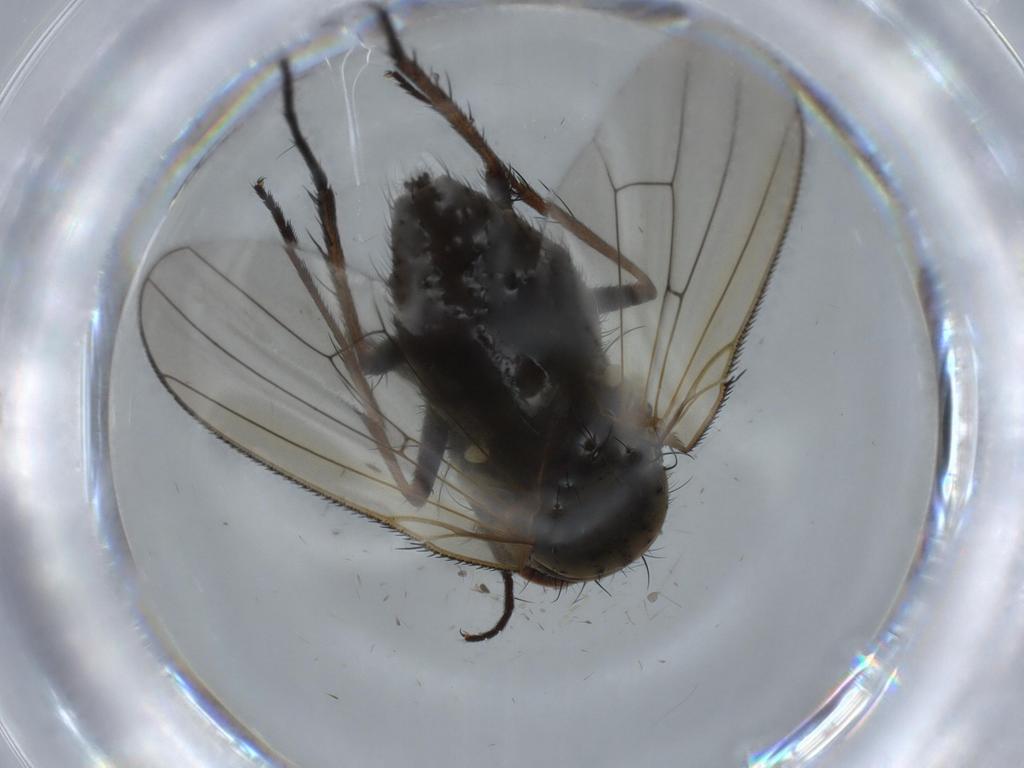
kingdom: Animalia
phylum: Arthropoda
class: Insecta
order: Diptera
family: Anthomyiidae
